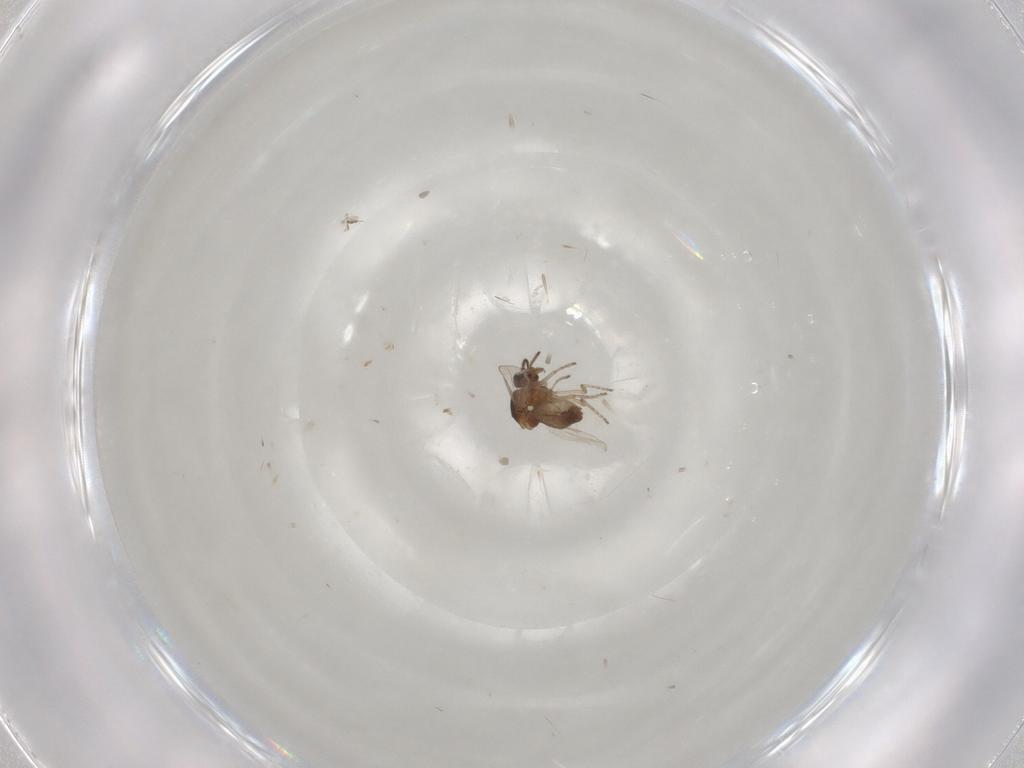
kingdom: Animalia
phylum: Arthropoda
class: Insecta
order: Diptera
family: Ceratopogonidae
